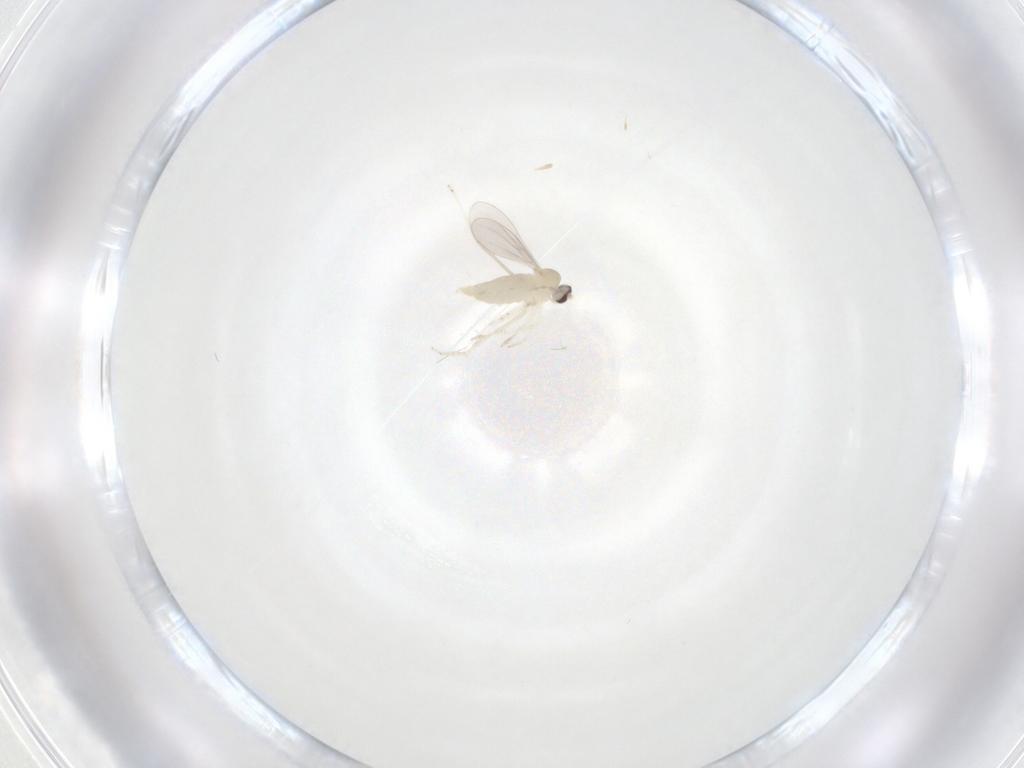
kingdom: Animalia
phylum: Arthropoda
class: Insecta
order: Diptera
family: Cecidomyiidae
